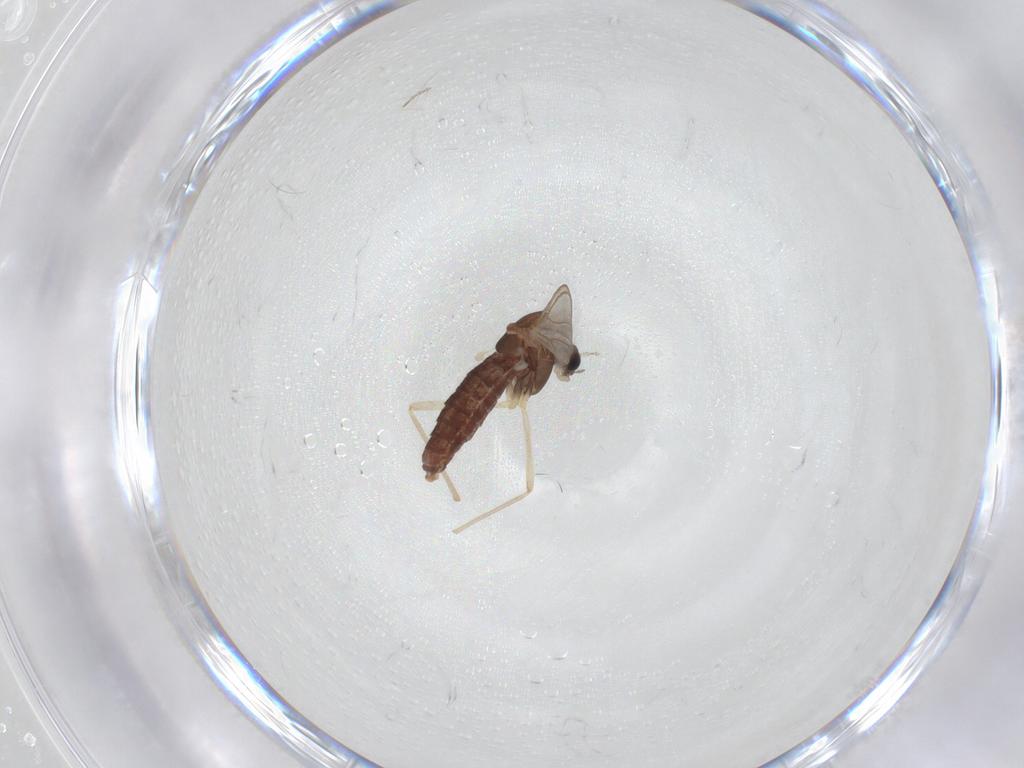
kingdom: Animalia
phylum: Arthropoda
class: Insecta
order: Diptera
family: Chironomidae
